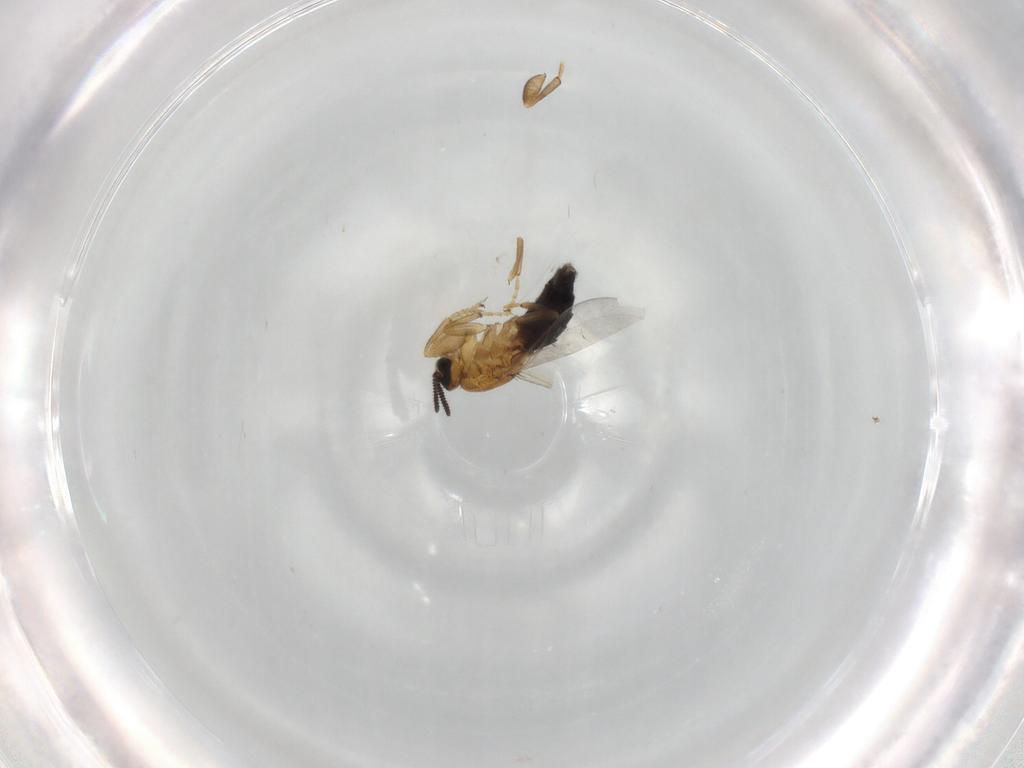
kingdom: Animalia
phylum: Arthropoda
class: Insecta
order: Diptera
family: Scatopsidae
